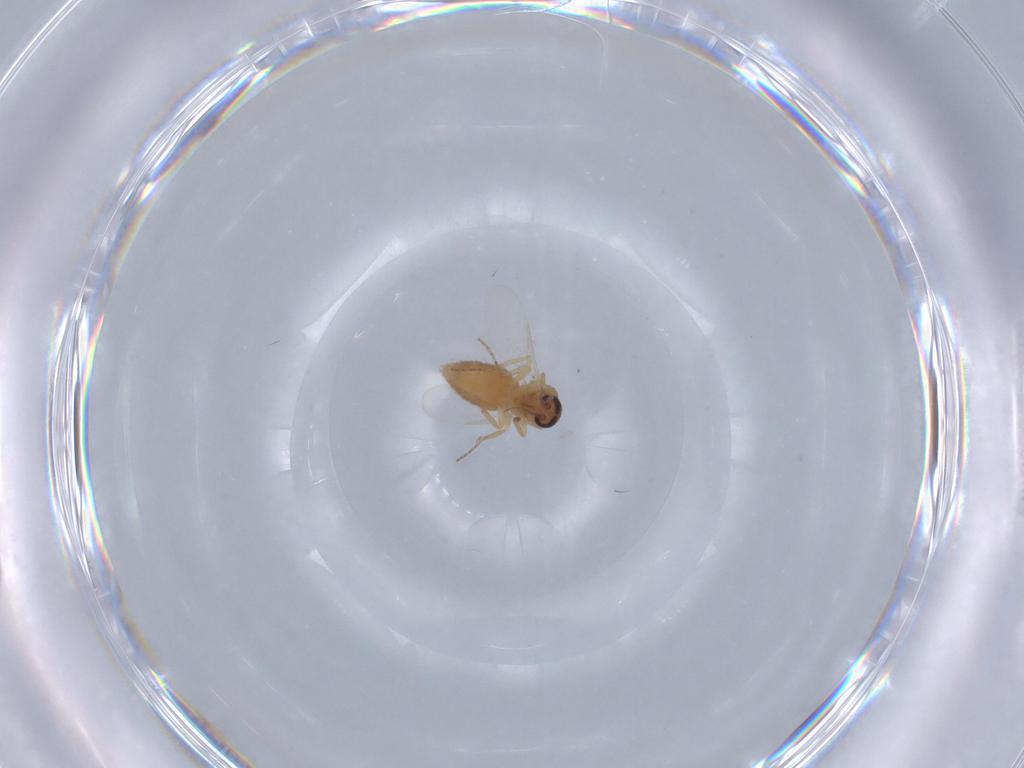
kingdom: Animalia
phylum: Arthropoda
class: Insecta
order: Diptera
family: Ceratopogonidae
